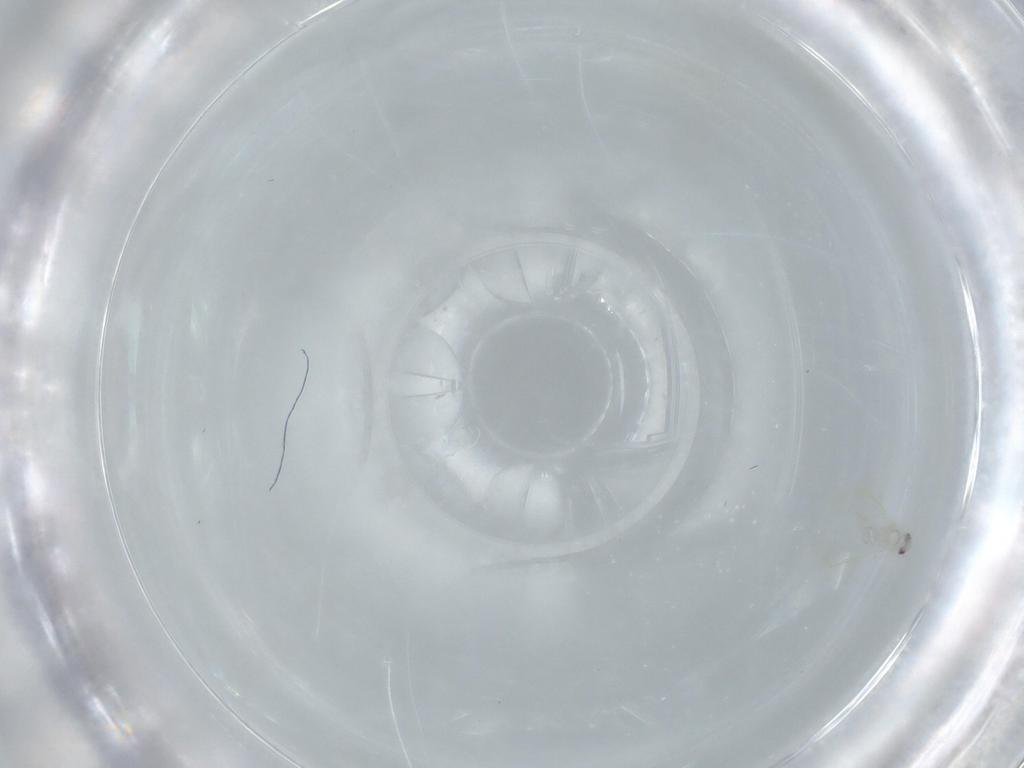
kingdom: Animalia
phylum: Arthropoda
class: Insecta
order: Hemiptera
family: Aleyrodidae
